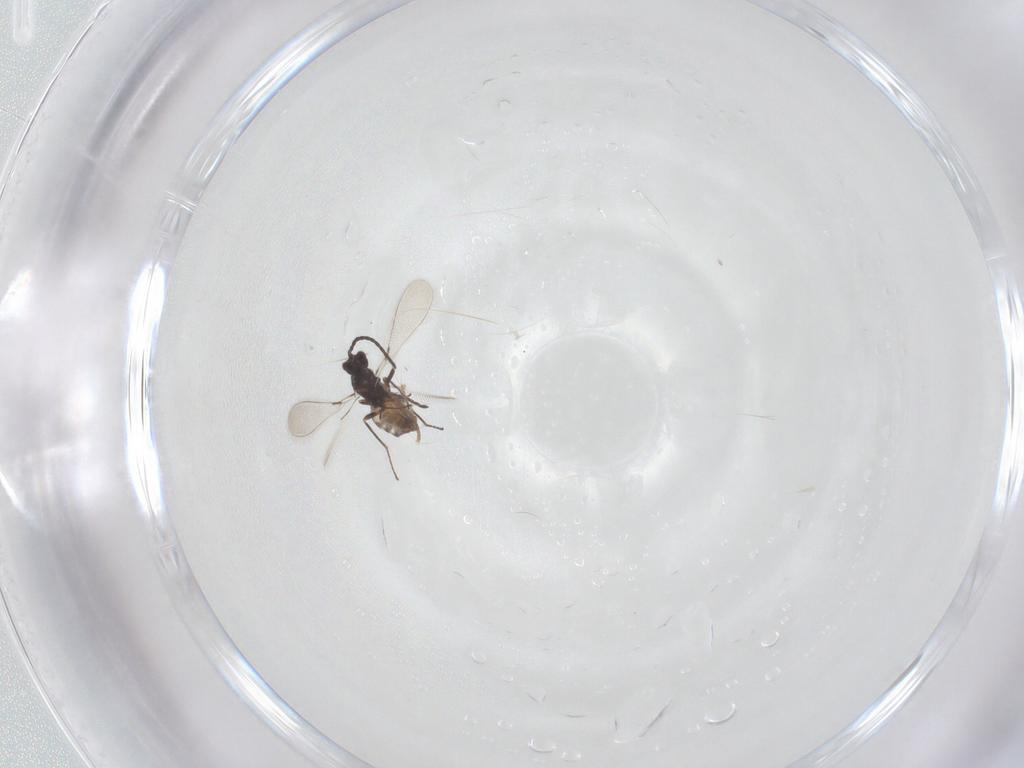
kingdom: Animalia
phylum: Arthropoda
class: Insecta
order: Hymenoptera
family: Mymaridae
